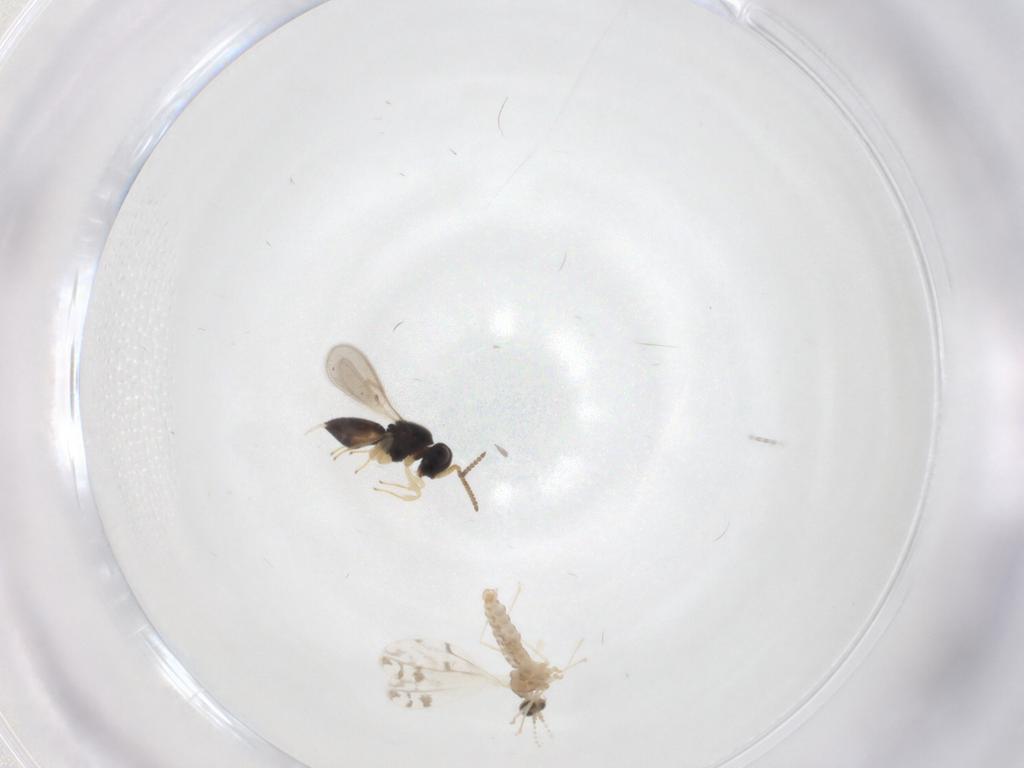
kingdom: Animalia
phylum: Arthropoda
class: Insecta
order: Hymenoptera
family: Scelionidae
